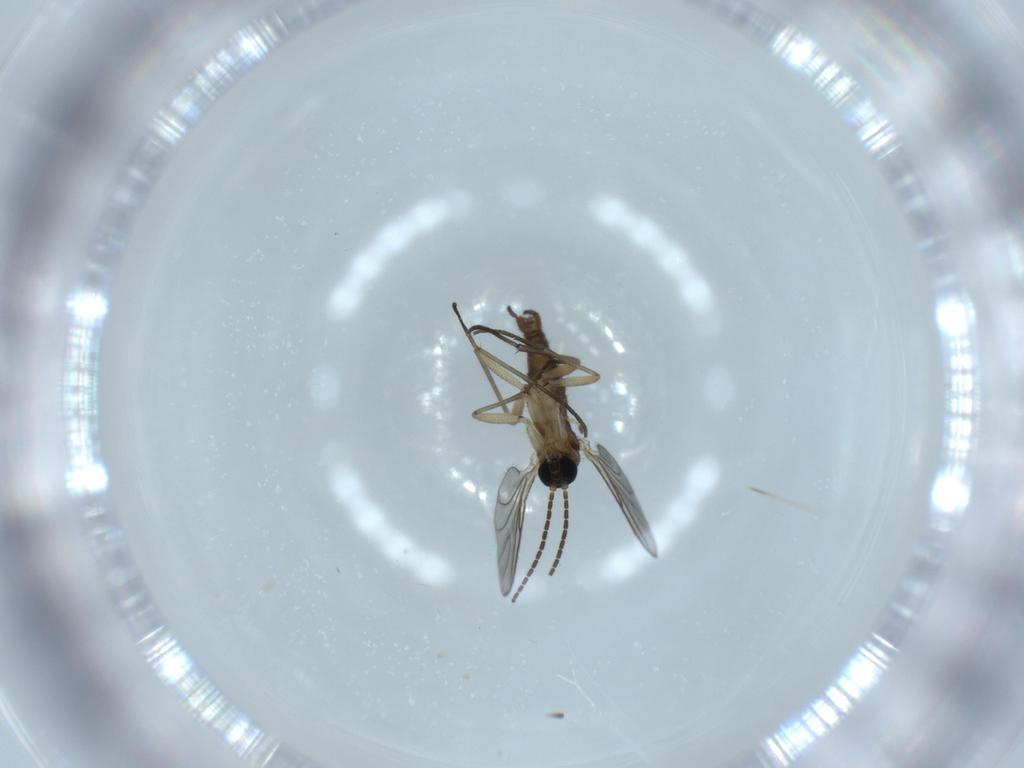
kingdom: Animalia
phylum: Arthropoda
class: Insecta
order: Diptera
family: Sciaridae
